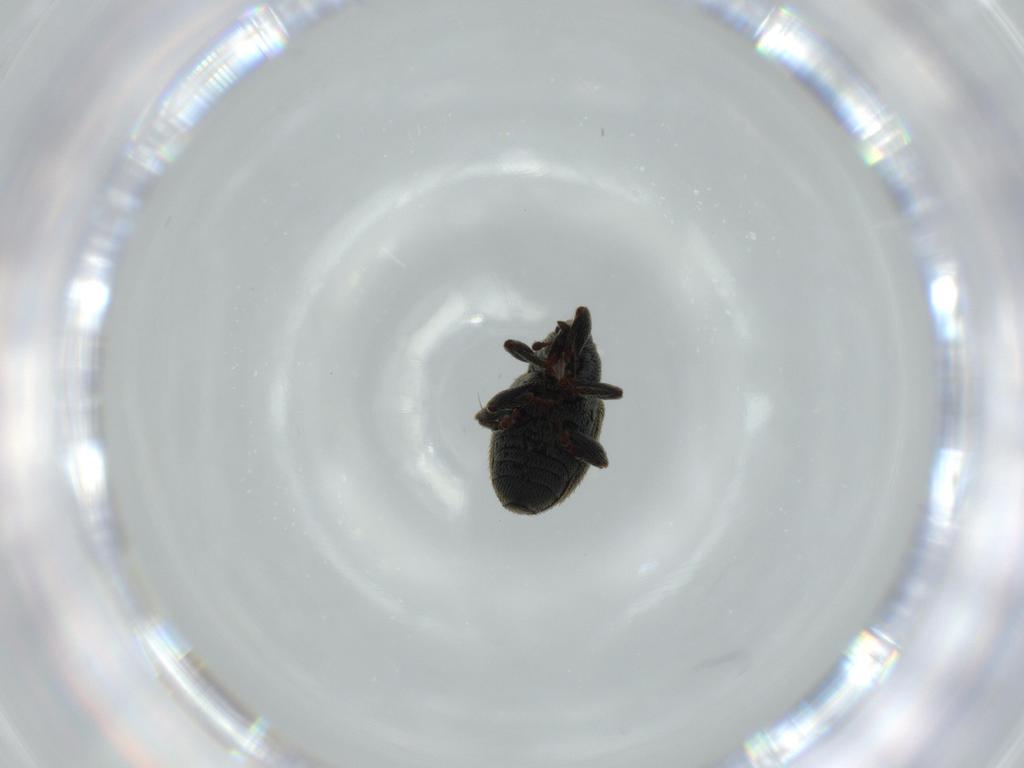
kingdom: Animalia
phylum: Arthropoda
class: Insecta
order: Coleoptera
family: Curculionidae
